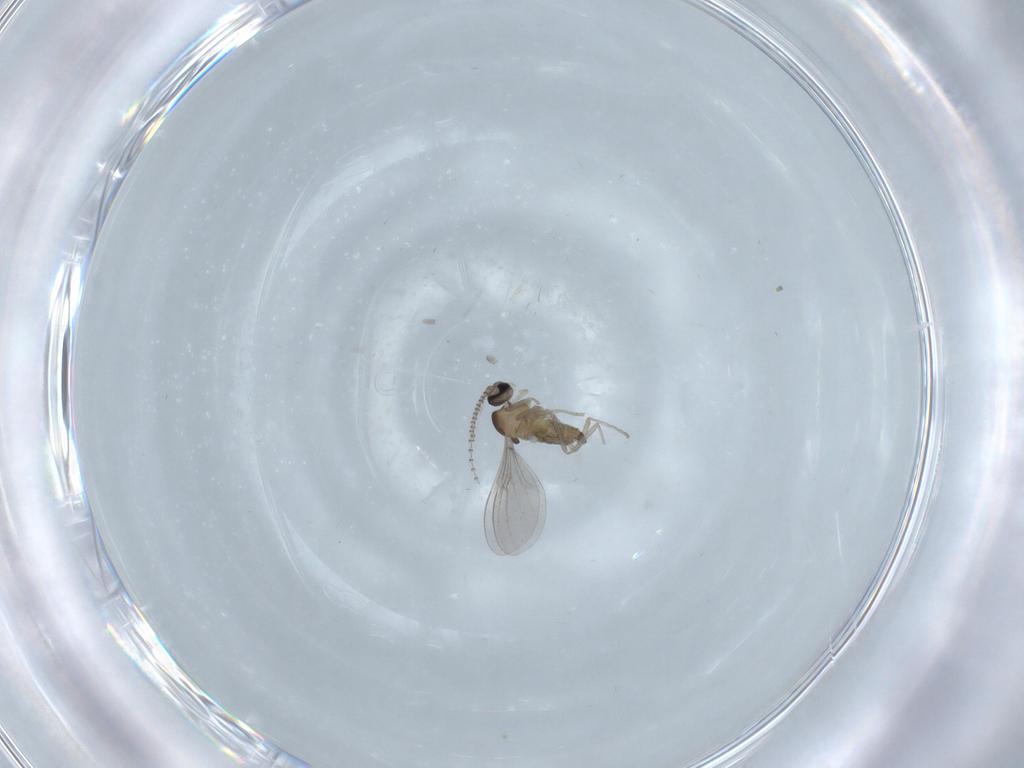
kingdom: Animalia
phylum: Arthropoda
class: Insecta
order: Diptera
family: Cecidomyiidae
